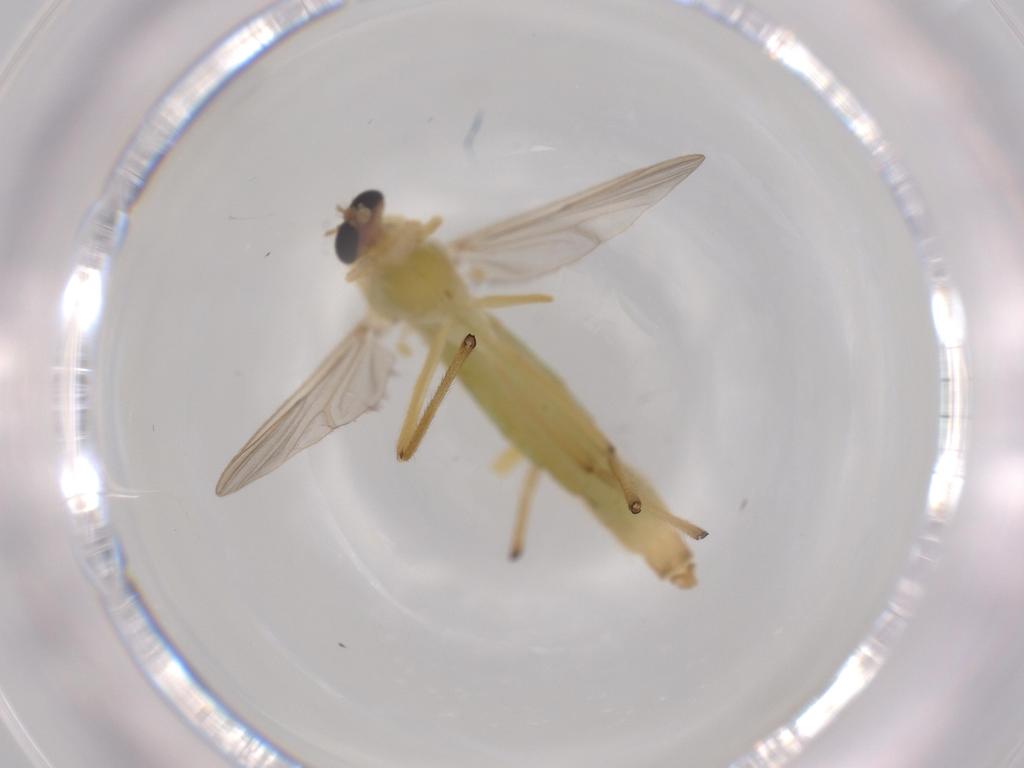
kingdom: Animalia
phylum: Arthropoda
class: Insecta
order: Diptera
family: Chironomidae
